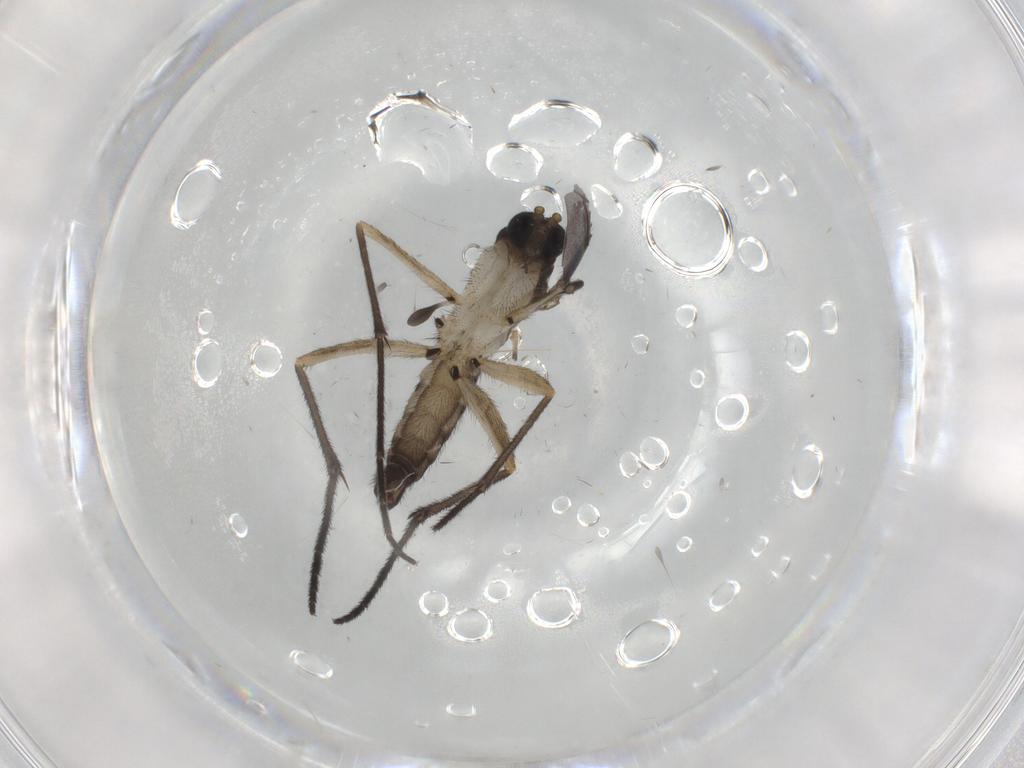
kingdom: Animalia
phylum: Arthropoda
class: Insecta
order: Diptera
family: Sciaridae
